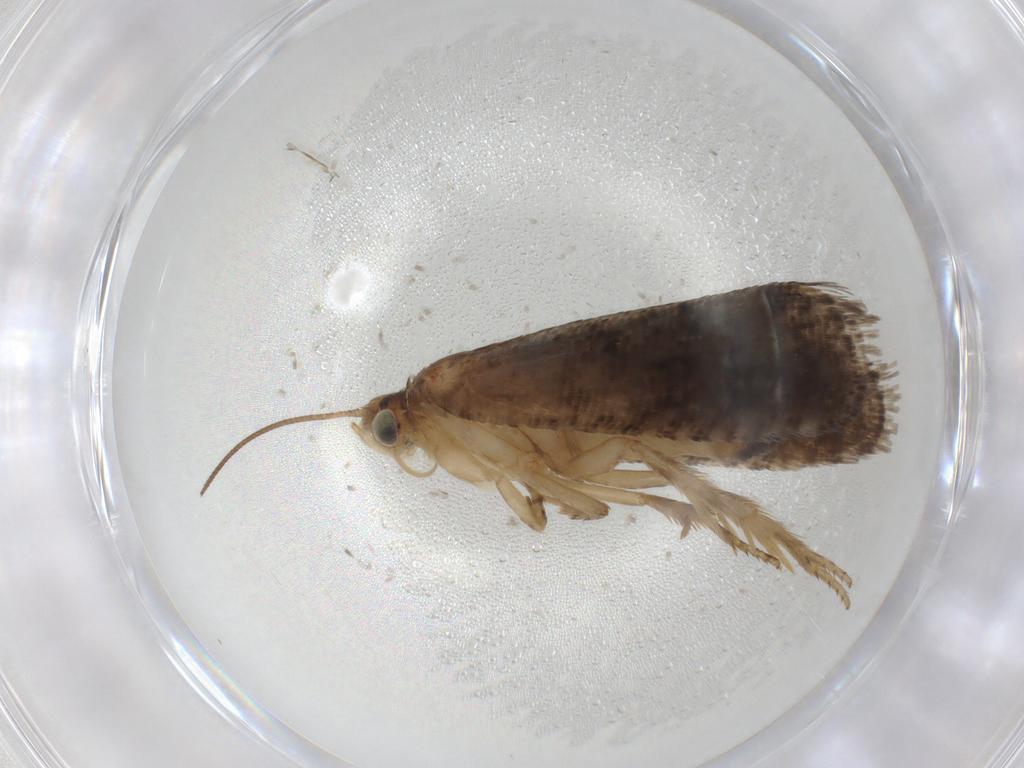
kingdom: Animalia
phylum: Arthropoda
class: Insecta
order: Lepidoptera
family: Tortricidae
